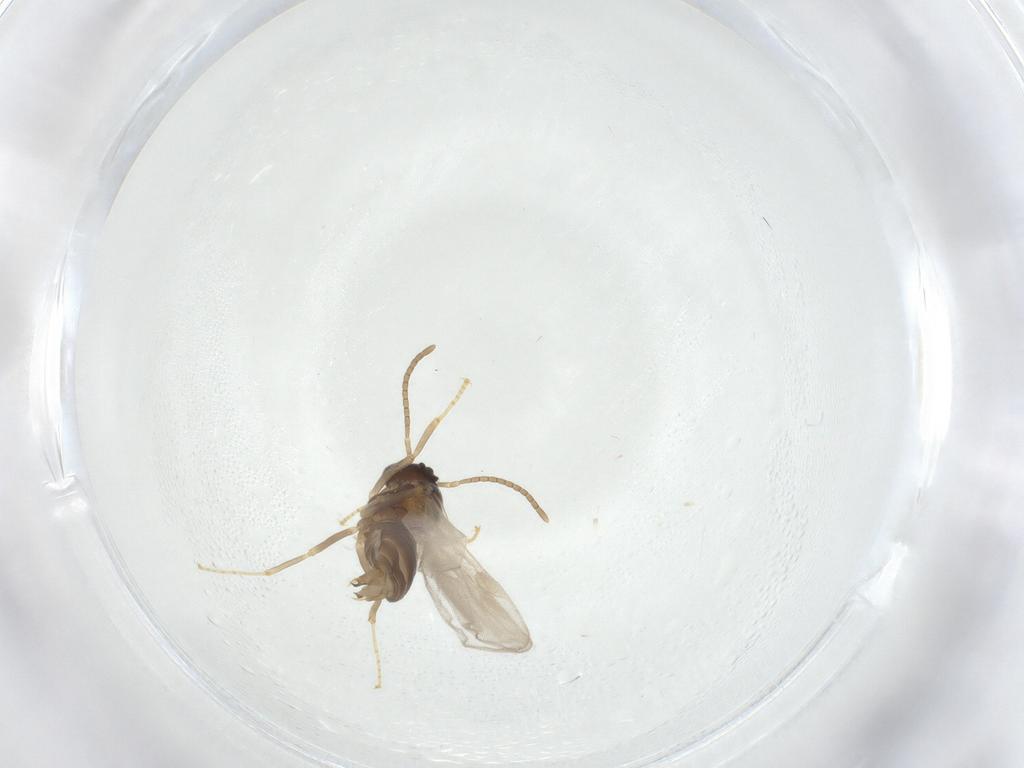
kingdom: Animalia
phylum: Arthropoda
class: Insecta
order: Hymenoptera
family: Formicidae
